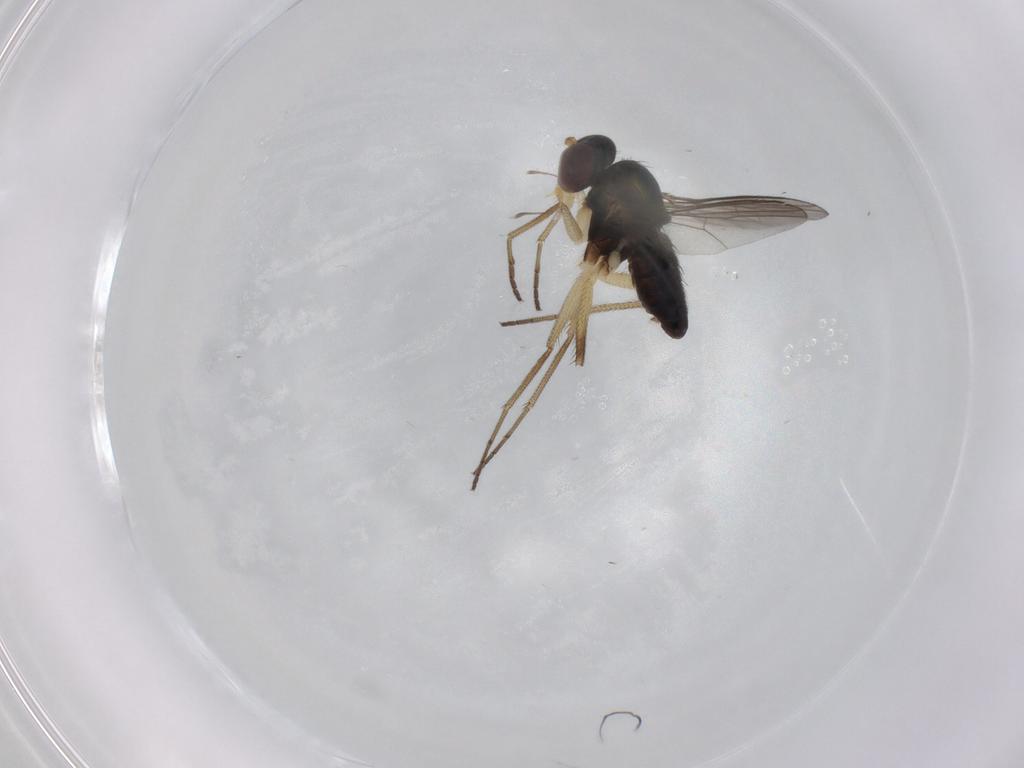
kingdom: Animalia
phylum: Arthropoda
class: Insecta
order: Diptera
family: Dolichopodidae
